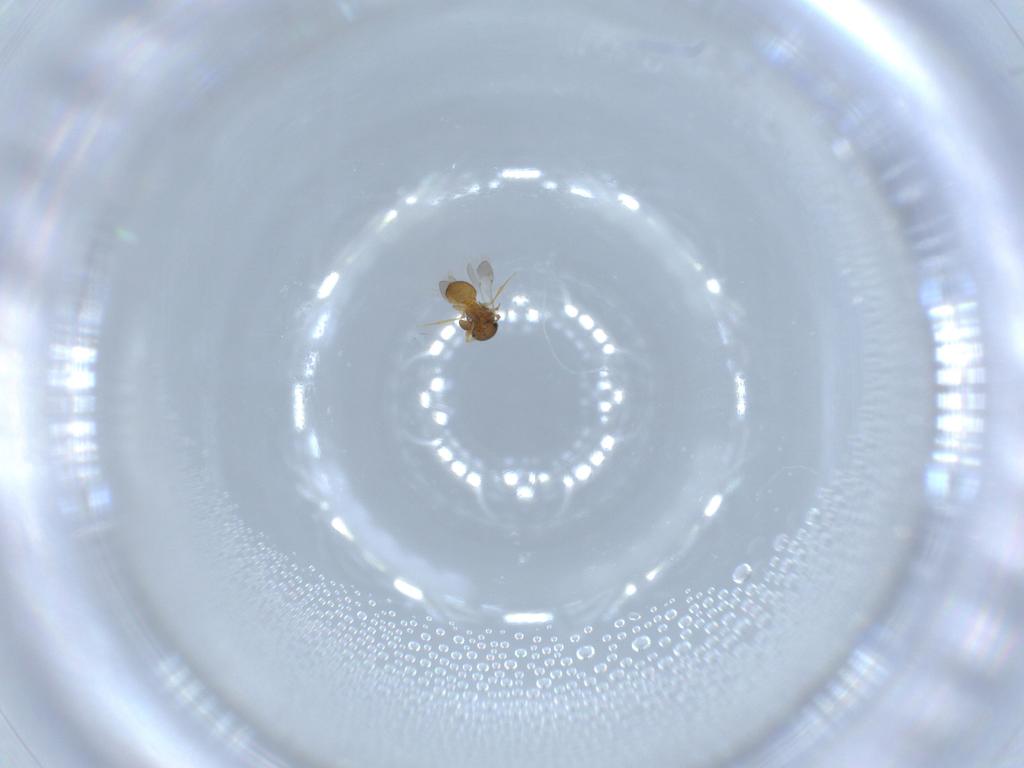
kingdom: Animalia
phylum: Arthropoda
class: Insecta
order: Hymenoptera
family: Scelionidae
